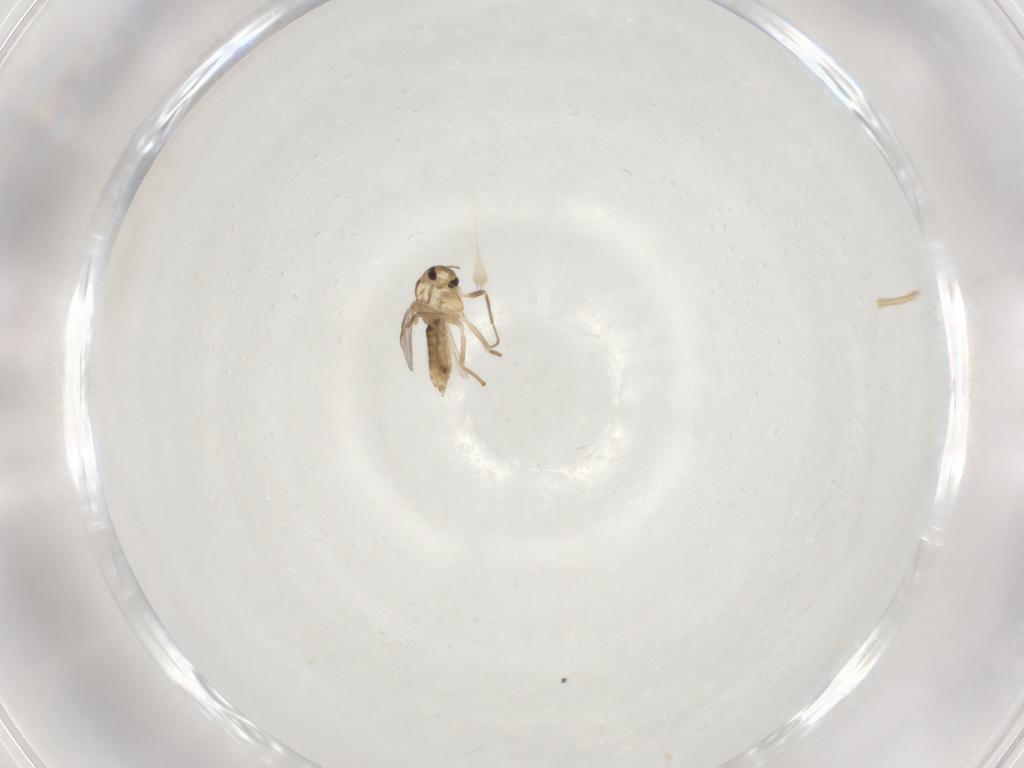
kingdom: Animalia
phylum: Arthropoda
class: Insecta
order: Diptera
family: Chironomidae
